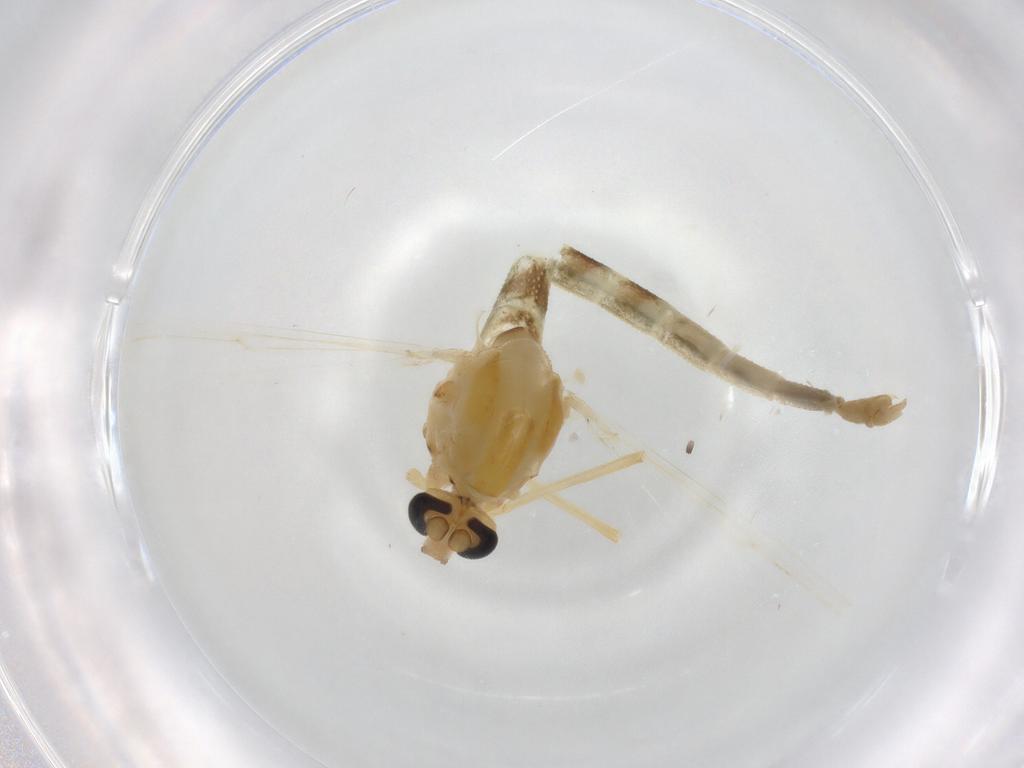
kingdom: Animalia
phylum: Arthropoda
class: Insecta
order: Diptera
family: Chironomidae
